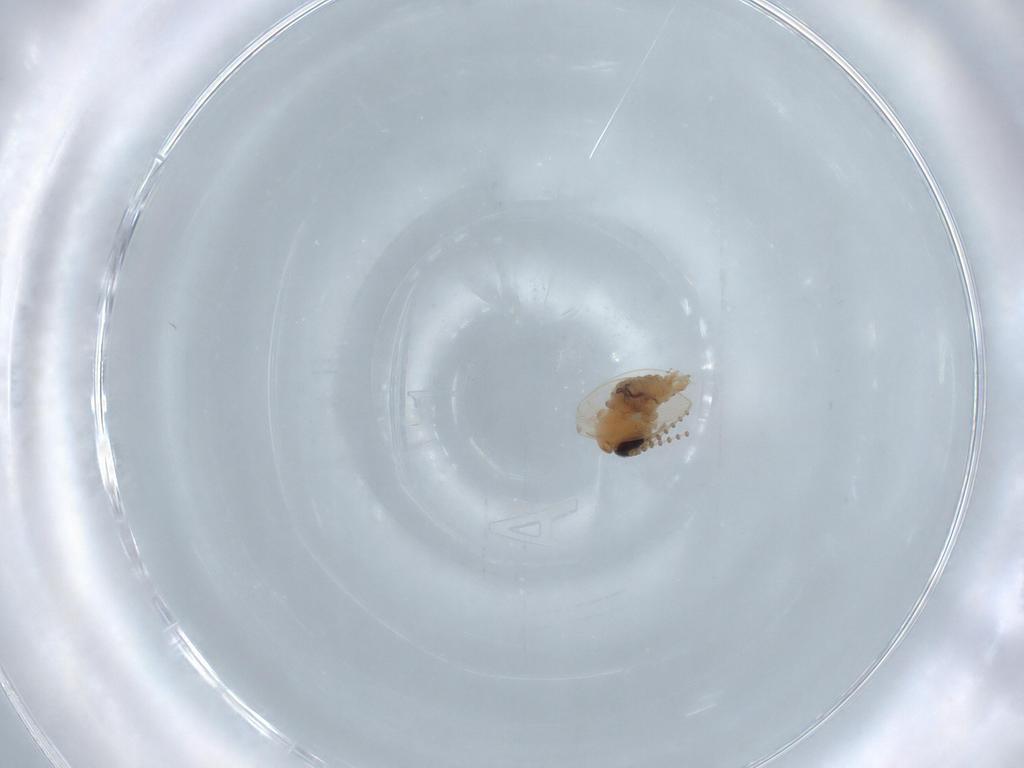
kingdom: Animalia
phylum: Arthropoda
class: Insecta
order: Diptera
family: Psychodidae
